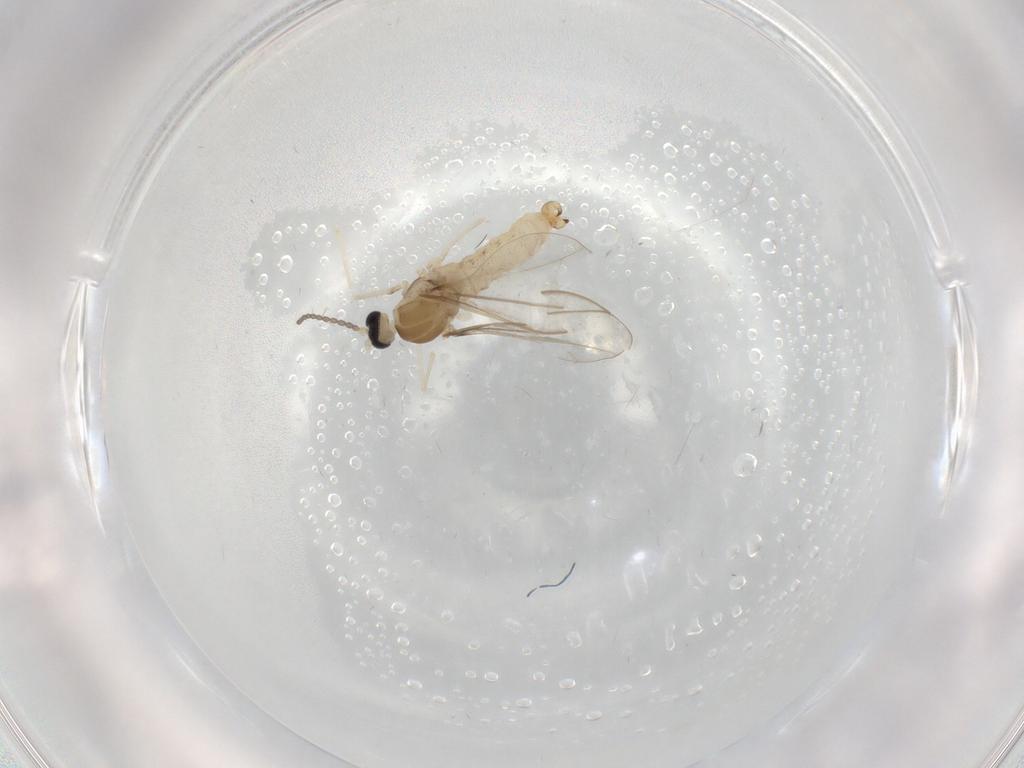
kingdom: Animalia
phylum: Arthropoda
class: Insecta
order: Diptera
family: Cecidomyiidae
